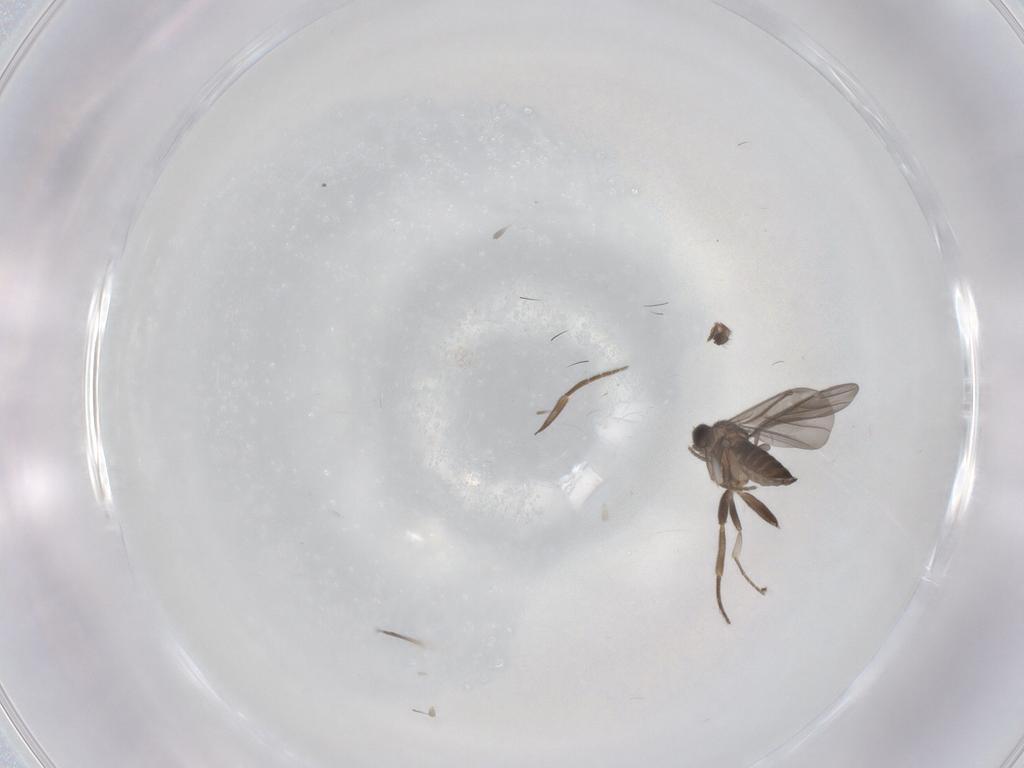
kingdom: Animalia
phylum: Arthropoda
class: Insecta
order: Diptera
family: Phoridae
